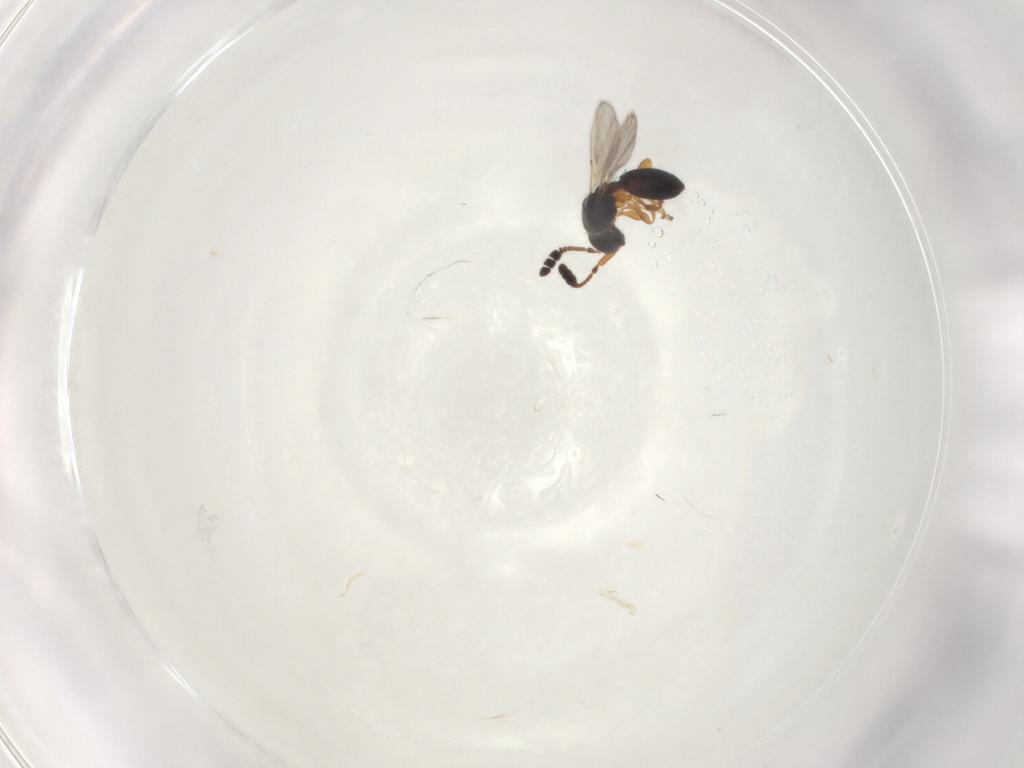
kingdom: Animalia
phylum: Arthropoda
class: Insecta
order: Hymenoptera
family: Diapriidae
